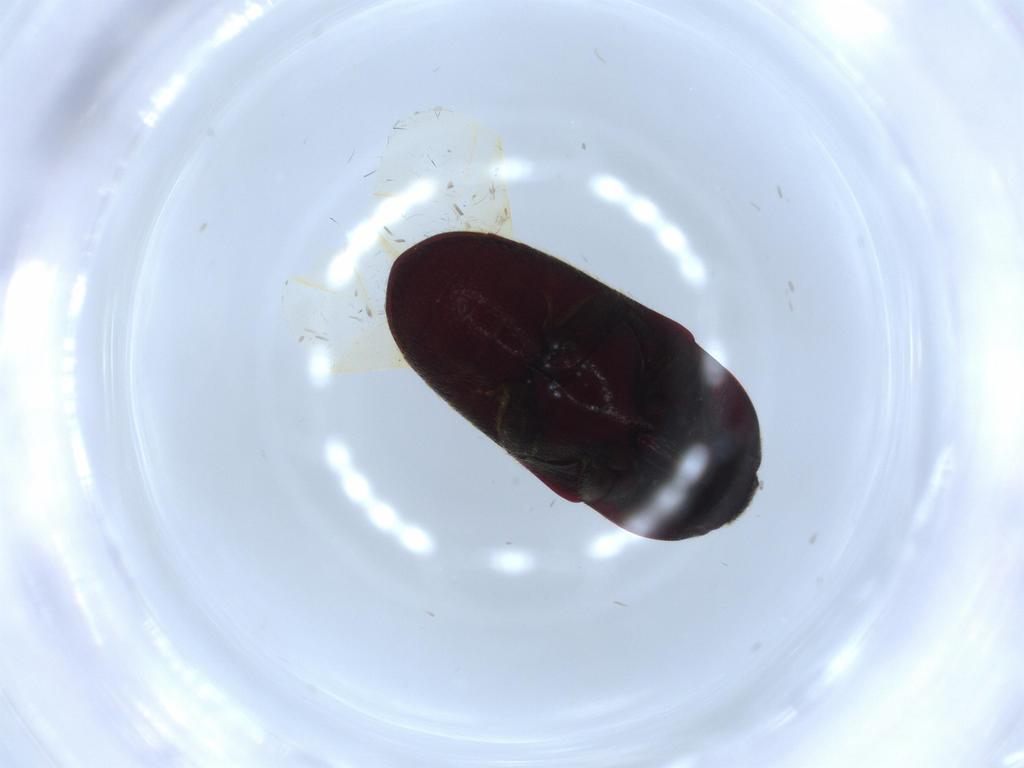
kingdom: Animalia
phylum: Arthropoda
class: Insecta
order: Coleoptera
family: Throscidae
